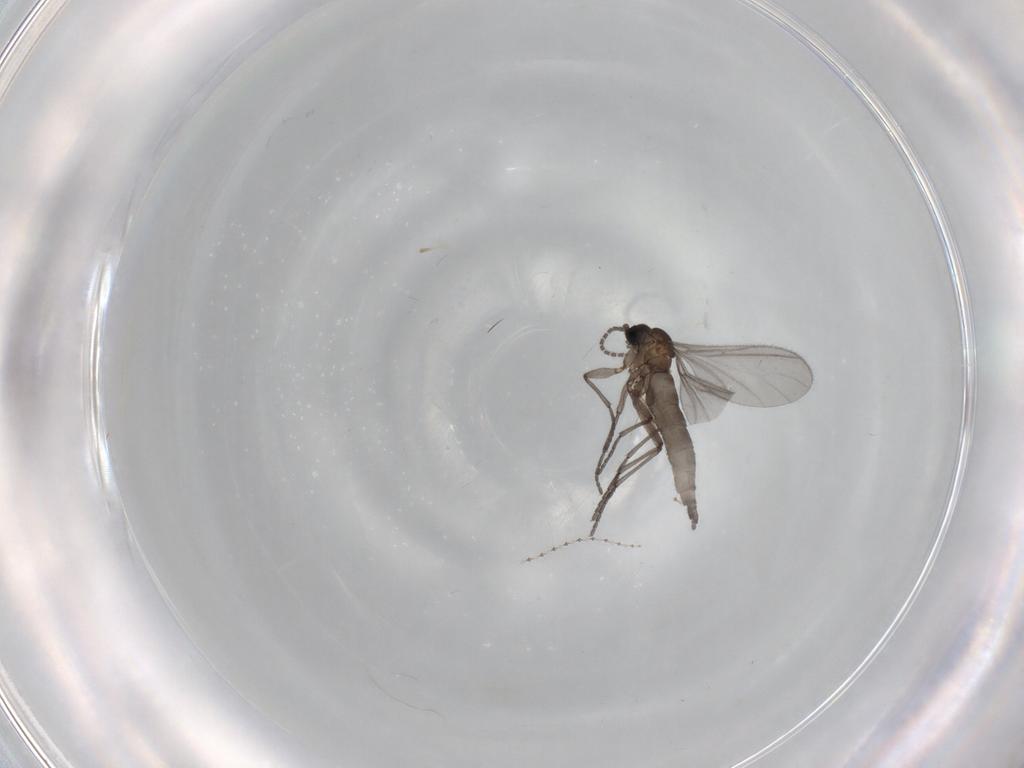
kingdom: Animalia
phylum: Arthropoda
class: Insecta
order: Diptera
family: Sciaridae
